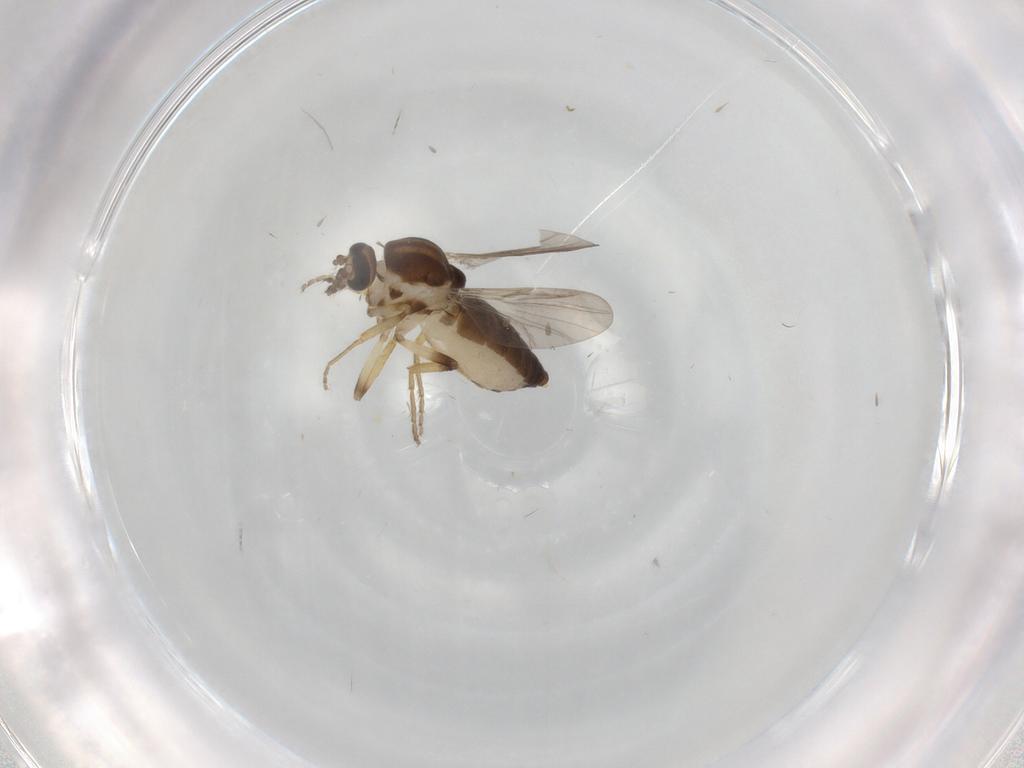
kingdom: Animalia
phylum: Arthropoda
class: Insecta
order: Diptera
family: Ceratopogonidae
